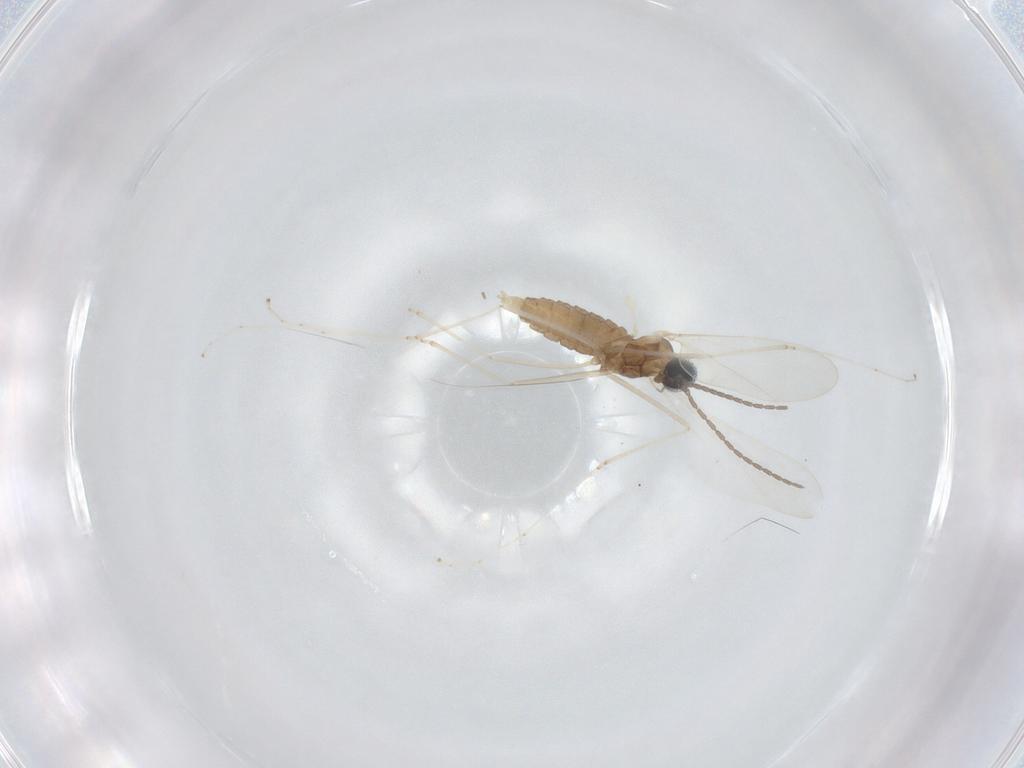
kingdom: Animalia
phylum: Arthropoda
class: Insecta
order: Diptera
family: Cecidomyiidae
